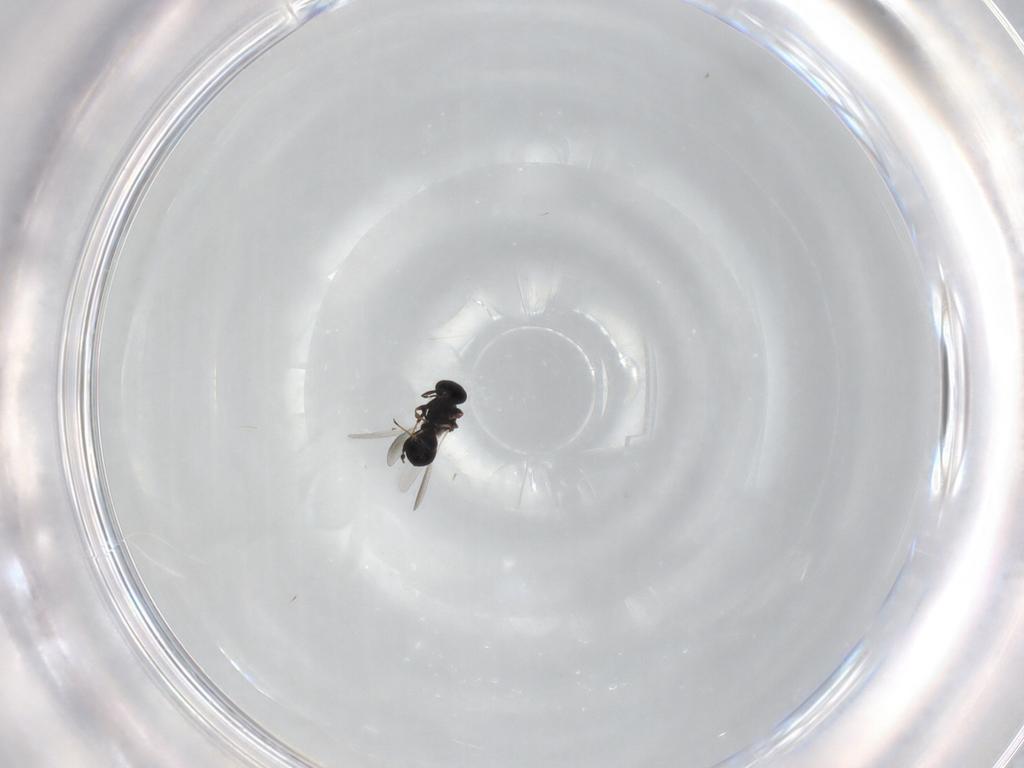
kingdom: Animalia
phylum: Arthropoda
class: Insecta
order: Hymenoptera
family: Platygastridae
